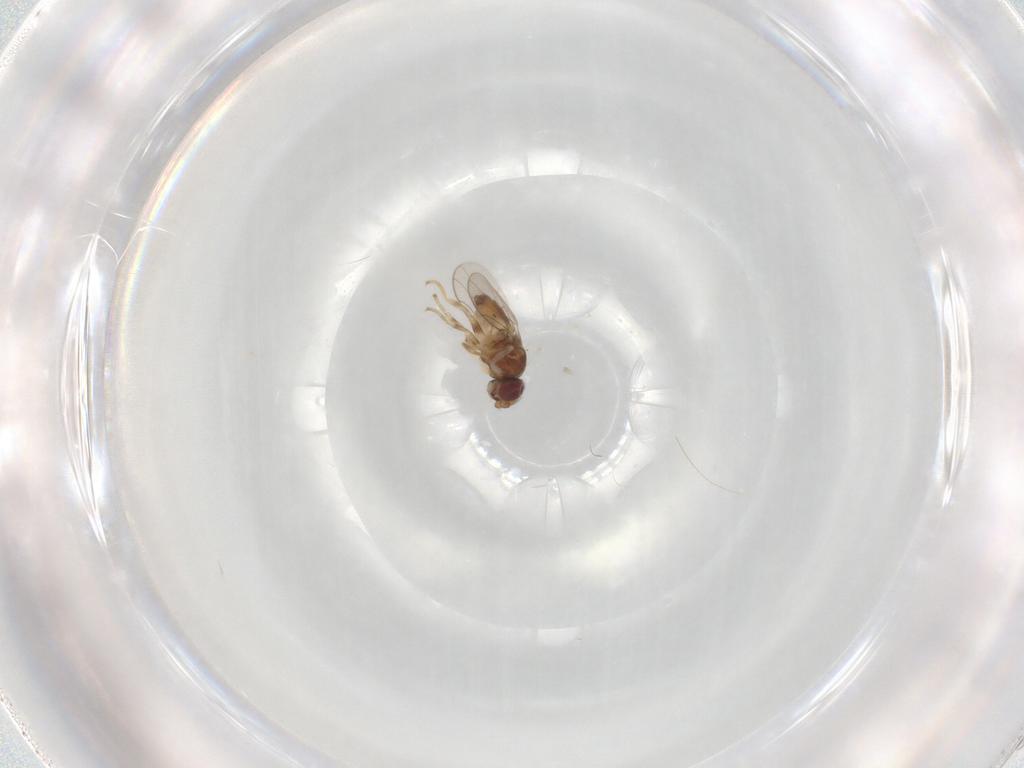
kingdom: Animalia
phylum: Arthropoda
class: Insecta
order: Diptera
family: Chloropidae
